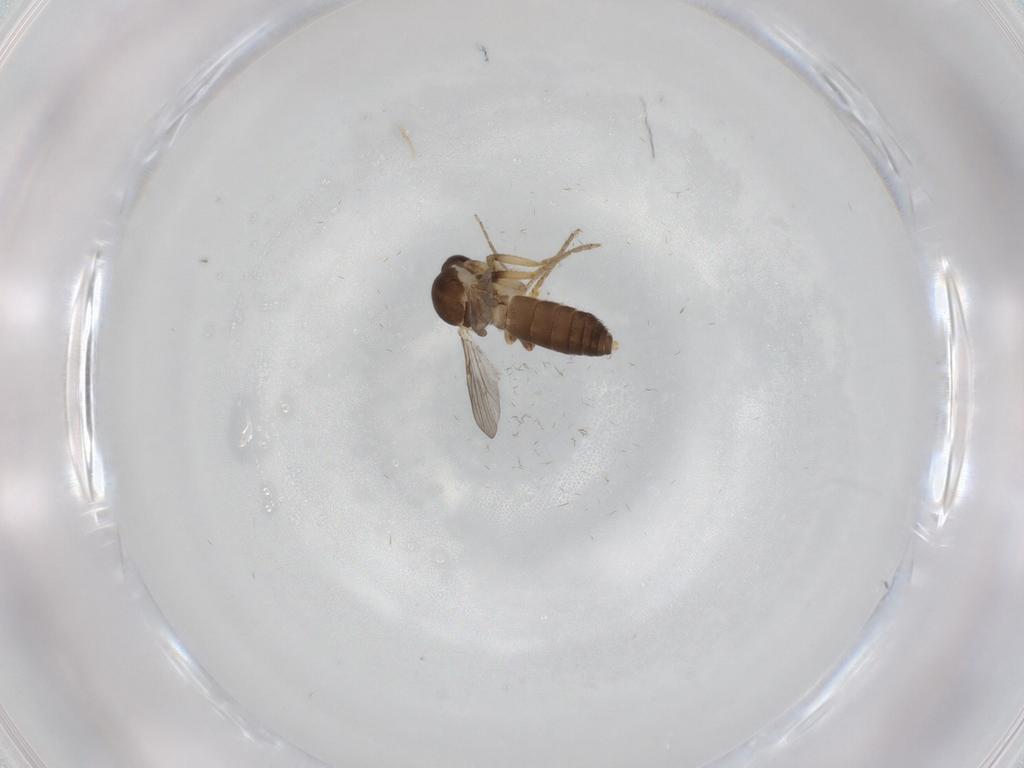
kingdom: Animalia
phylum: Arthropoda
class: Insecta
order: Diptera
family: Ceratopogonidae
